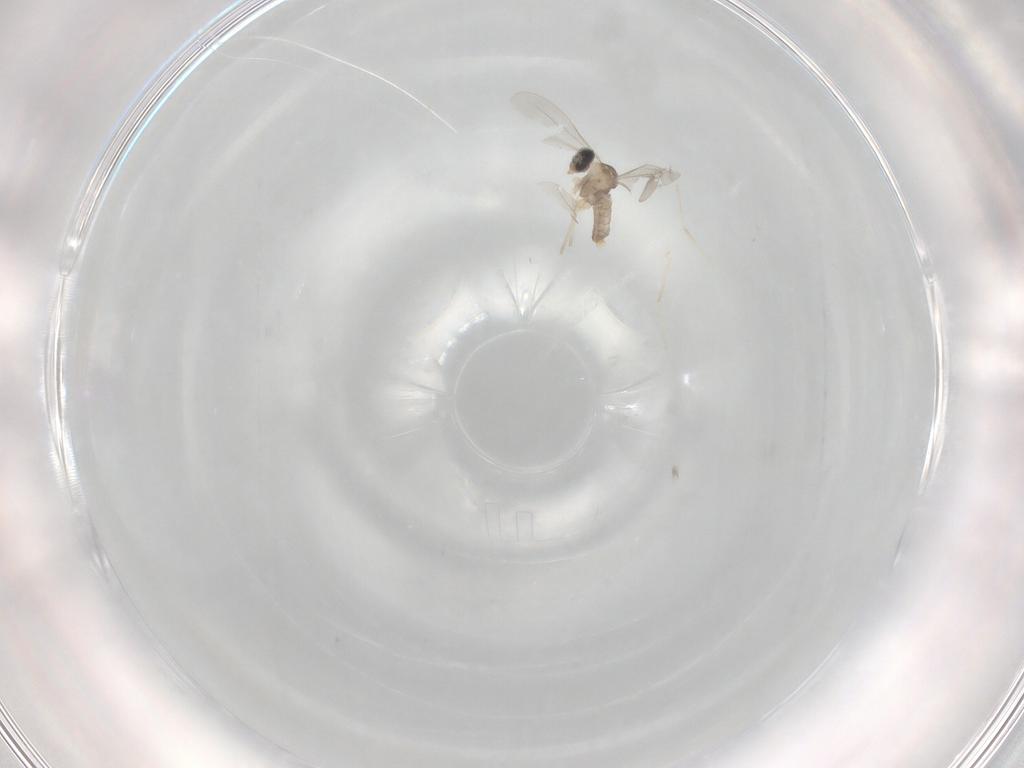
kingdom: Animalia
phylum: Arthropoda
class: Insecta
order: Diptera
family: Cecidomyiidae
